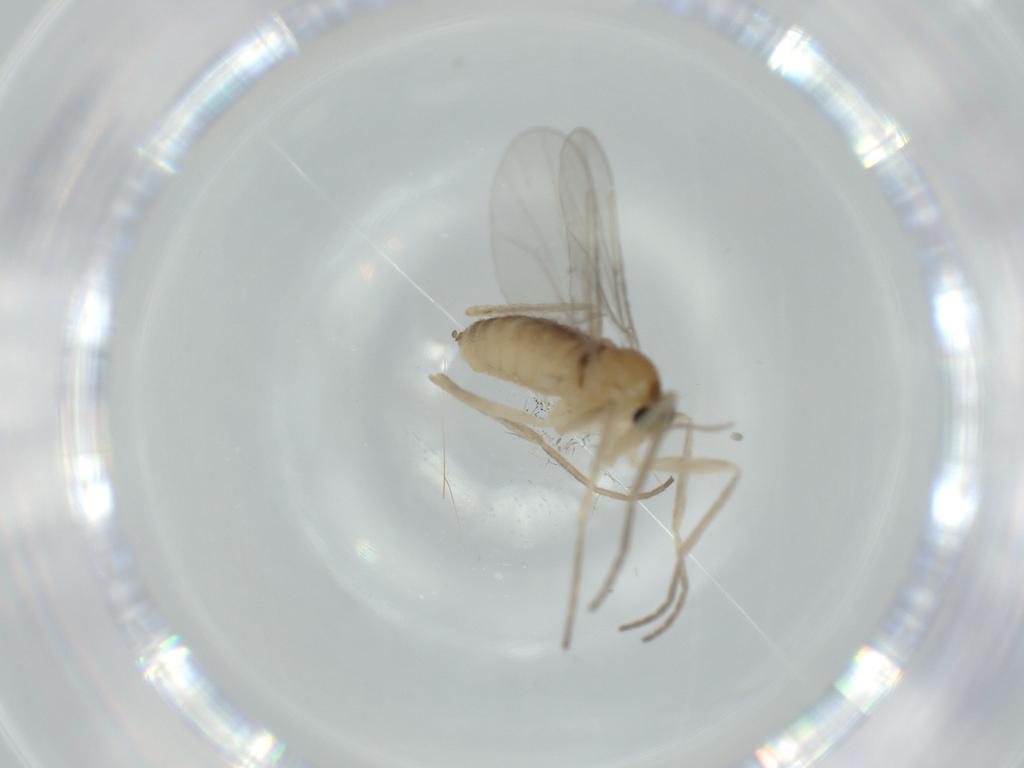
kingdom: Animalia
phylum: Arthropoda
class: Insecta
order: Diptera
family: Cecidomyiidae
